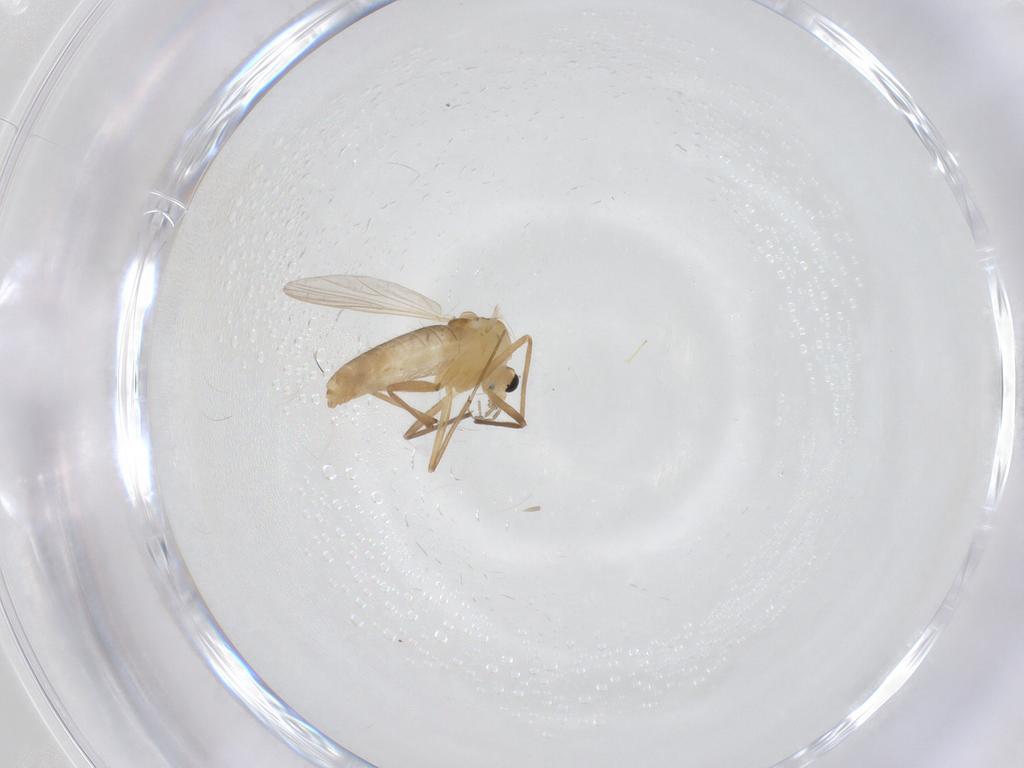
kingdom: Animalia
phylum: Arthropoda
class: Insecta
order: Diptera
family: Chironomidae
